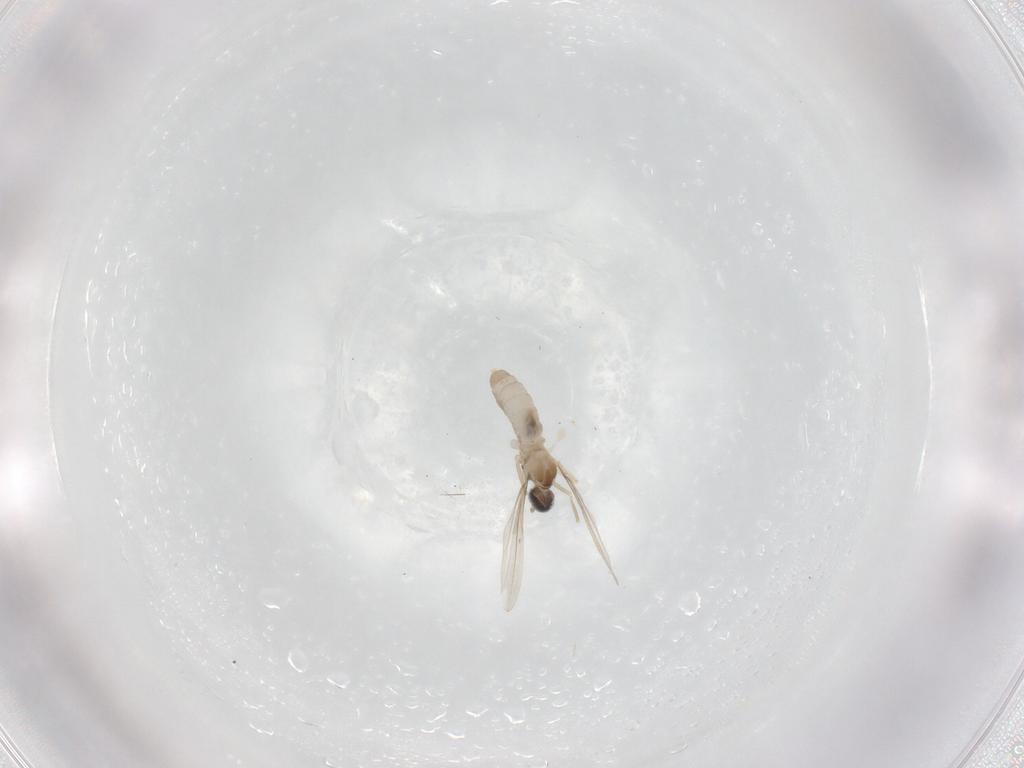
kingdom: Animalia
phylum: Arthropoda
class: Insecta
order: Diptera
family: Cecidomyiidae
